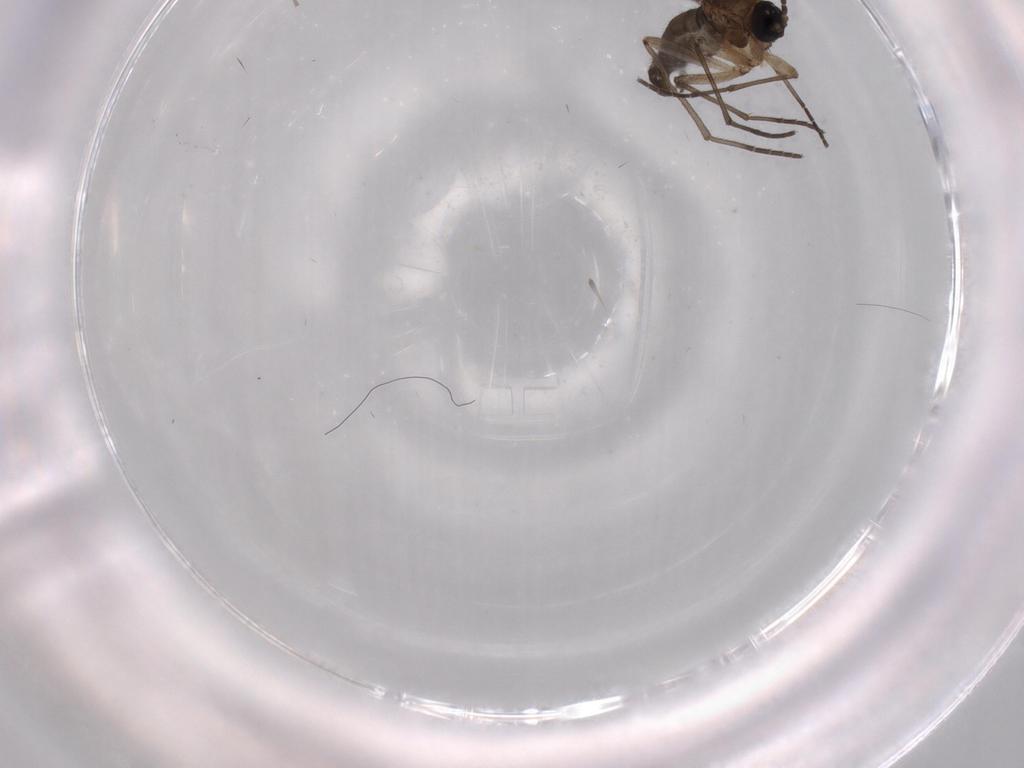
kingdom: Animalia
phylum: Arthropoda
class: Insecta
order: Diptera
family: Sciaridae
